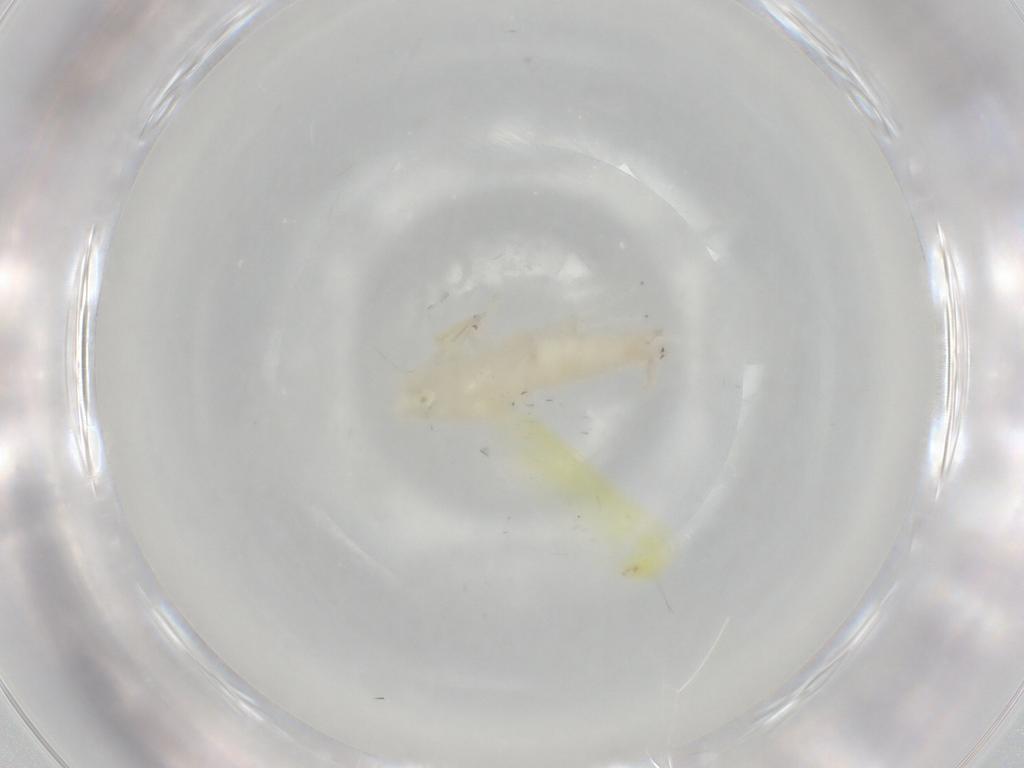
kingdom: Animalia
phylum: Arthropoda
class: Insecta
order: Hemiptera
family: Cicadellidae
